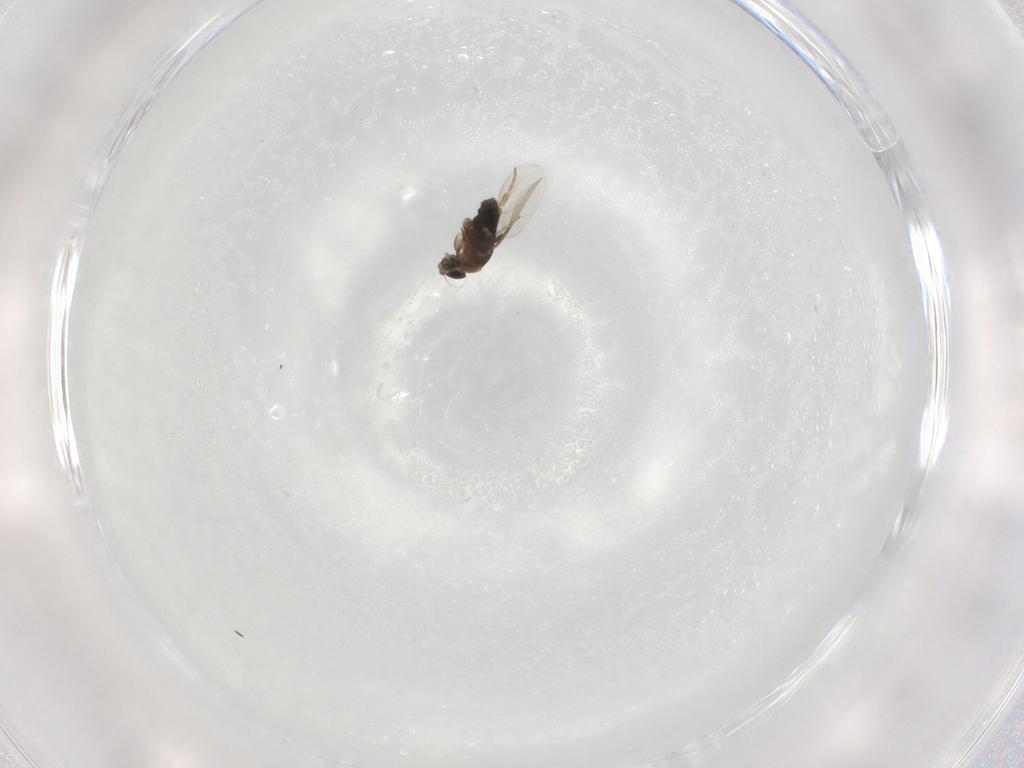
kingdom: Animalia
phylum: Arthropoda
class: Insecta
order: Diptera
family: Phoridae
